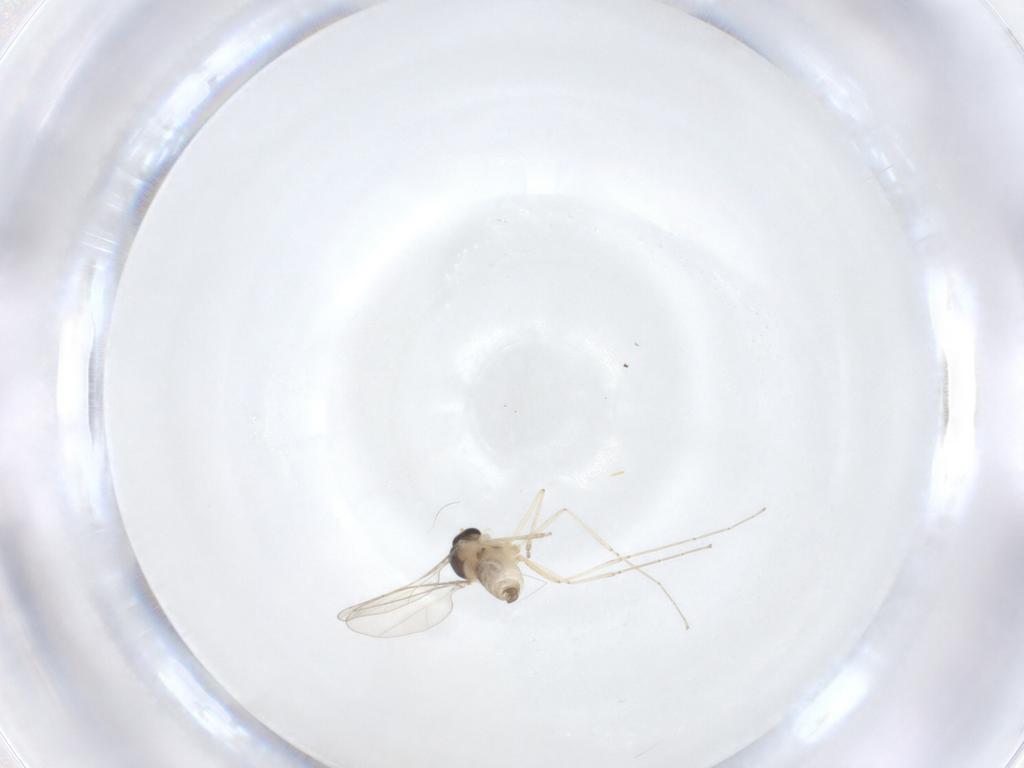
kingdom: Animalia
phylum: Arthropoda
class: Insecta
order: Diptera
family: Cecidomyiidae
